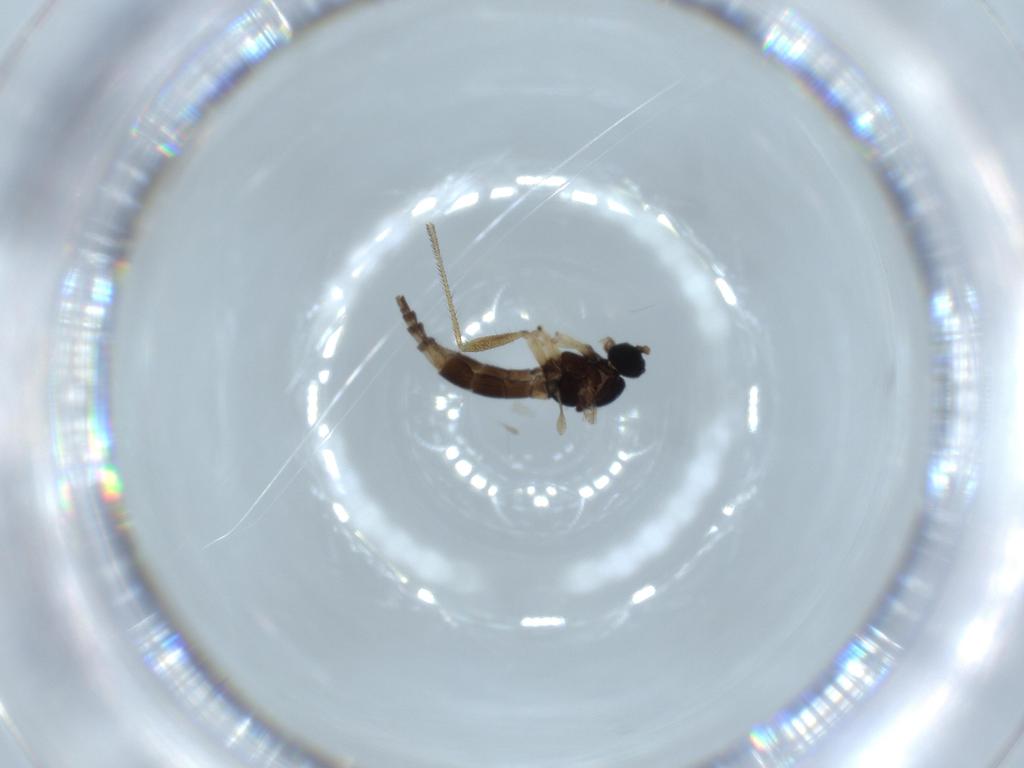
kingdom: Animalia
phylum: Arthropoda
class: Insecta
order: Diptera
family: Sciaridae
